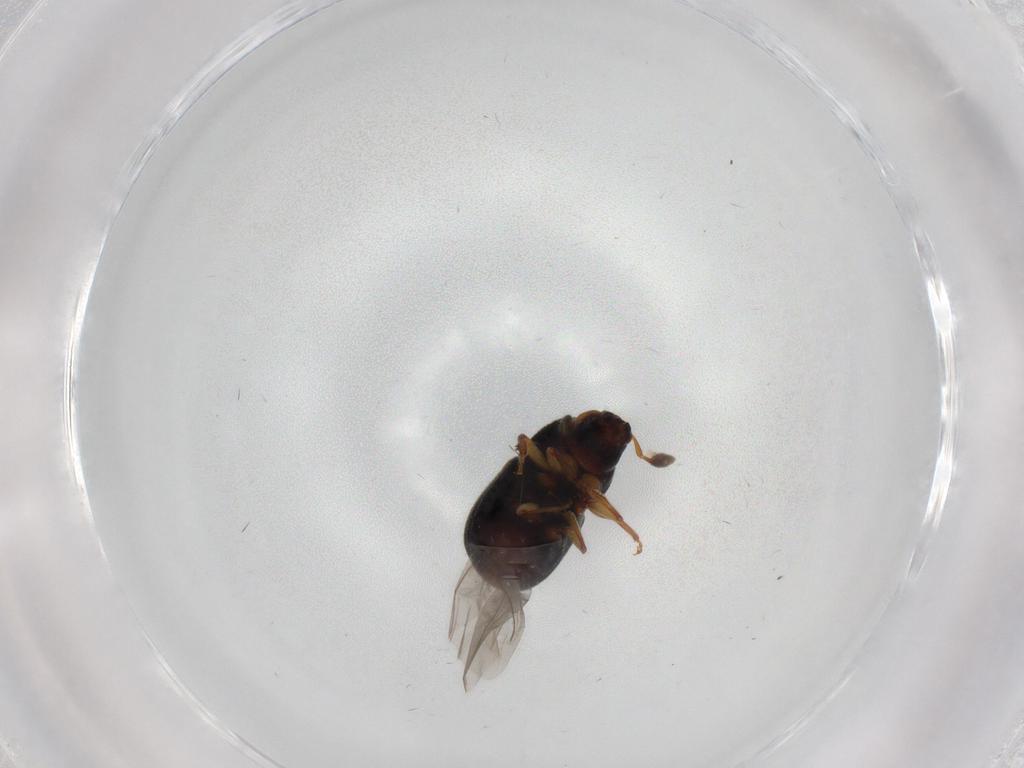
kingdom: Animalia
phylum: Arthropoda
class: Insecta
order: Coleoptera
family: Curculionidae
